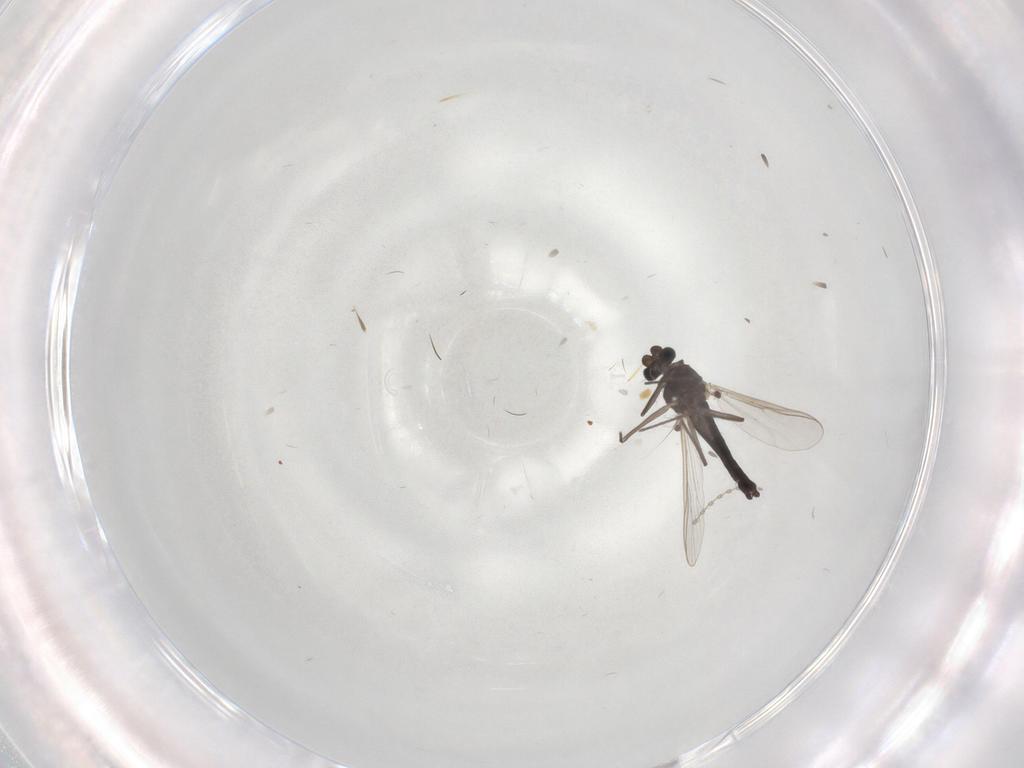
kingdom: Animalia
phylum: Arthropoda
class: Insecta
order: Diptera
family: Chironomidae
